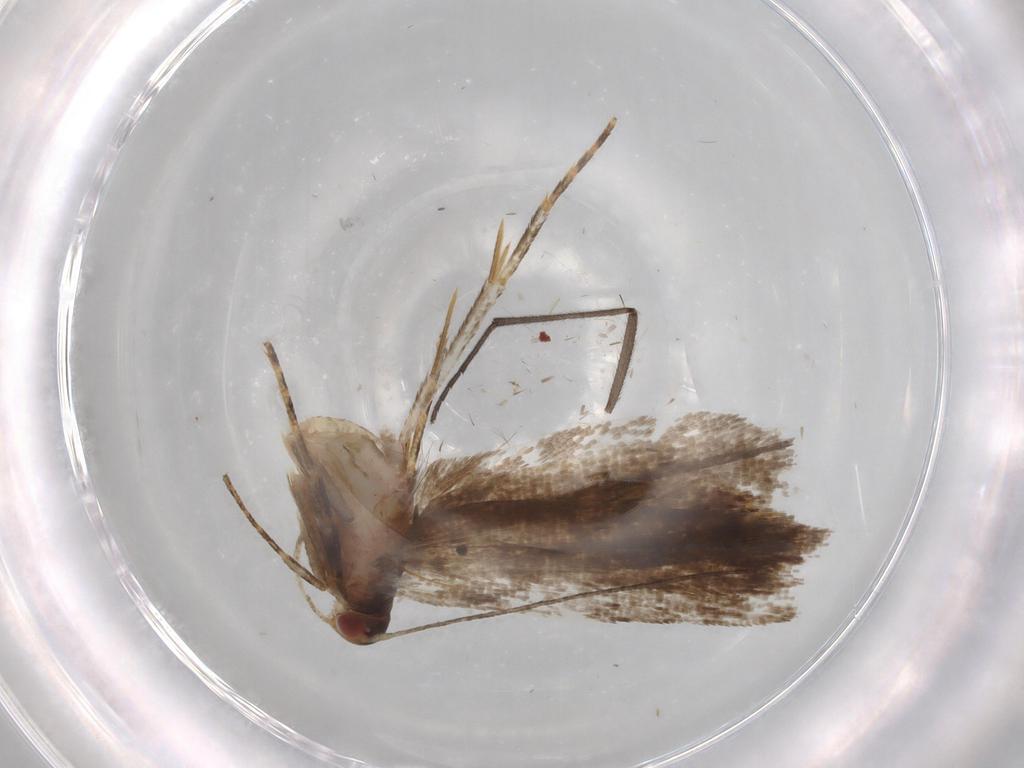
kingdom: Animalia
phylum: Arthropoda
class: Insecta
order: Lepidoptera
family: Gelechiidae
